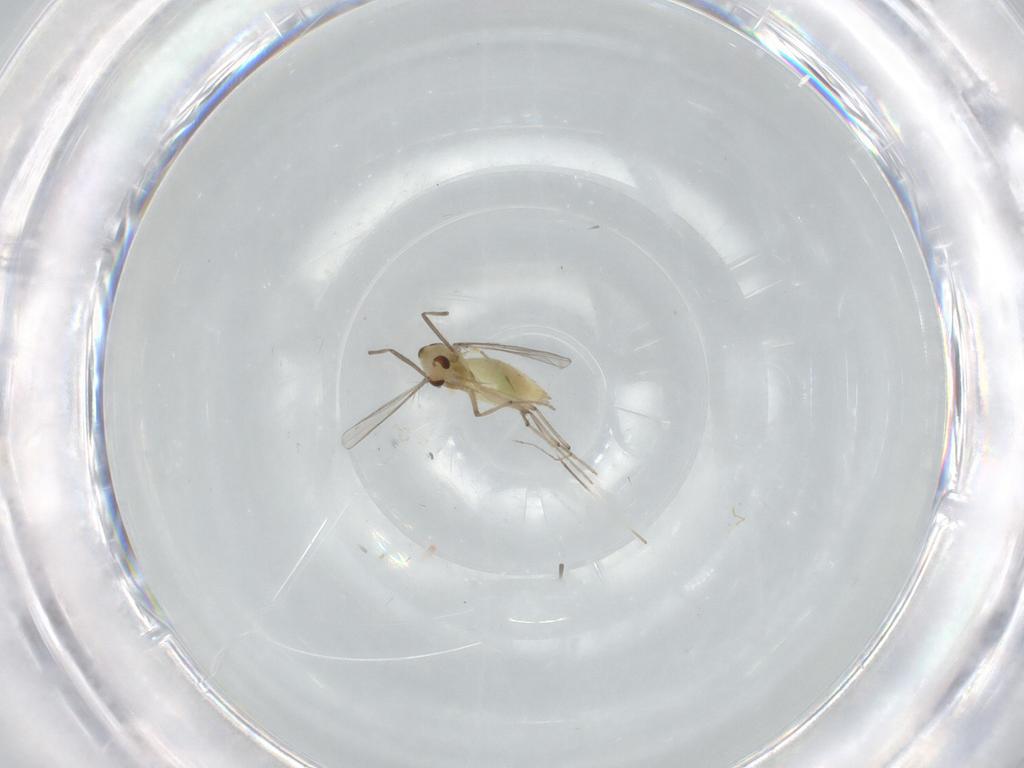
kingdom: Animalia
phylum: Arthropoda
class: Insecta
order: Diptera
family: Chironomidae
